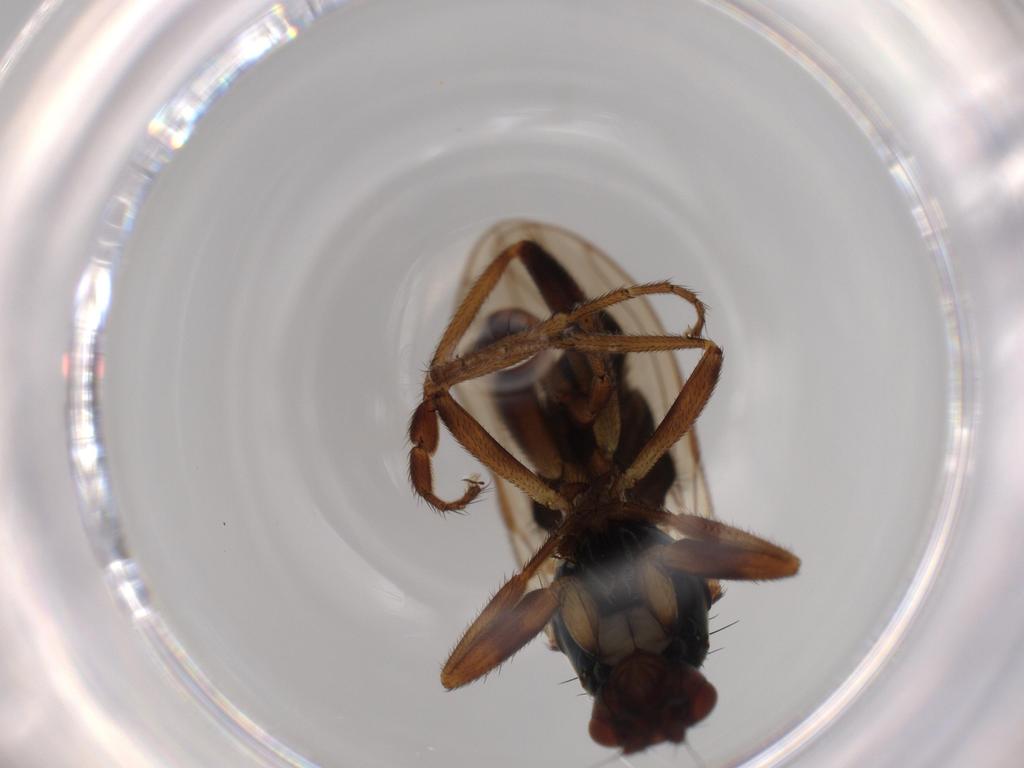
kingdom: Animalia
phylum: Arthropoda
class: Insecta
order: Diptera
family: Sphaeroceridae
